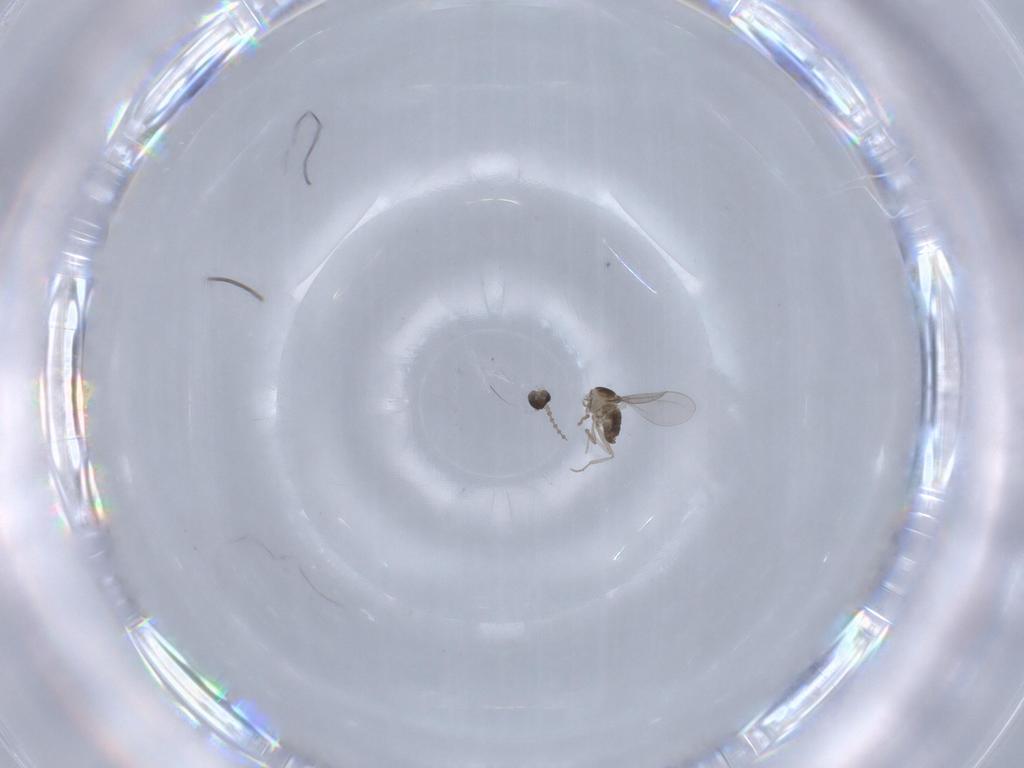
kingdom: Animalia
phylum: Arthropoda
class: Insecta
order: Diptera
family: Cecidomyiidae
